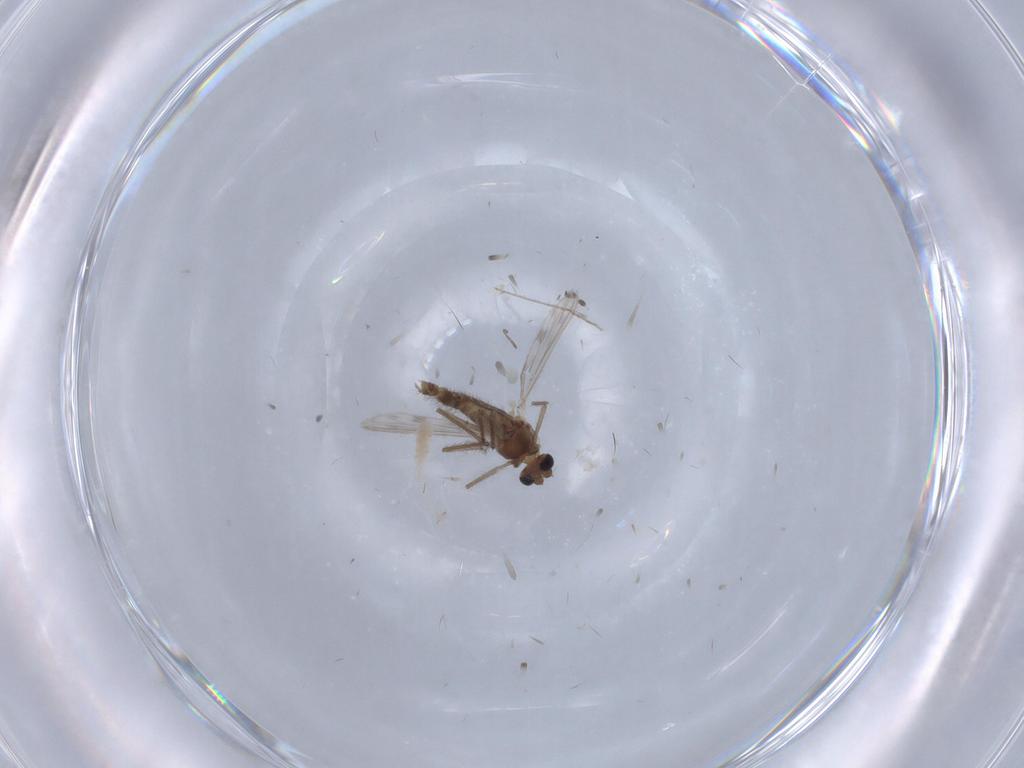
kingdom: Animalia
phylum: Arthropoda
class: Insecta
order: Diptera
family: Chironomidae
